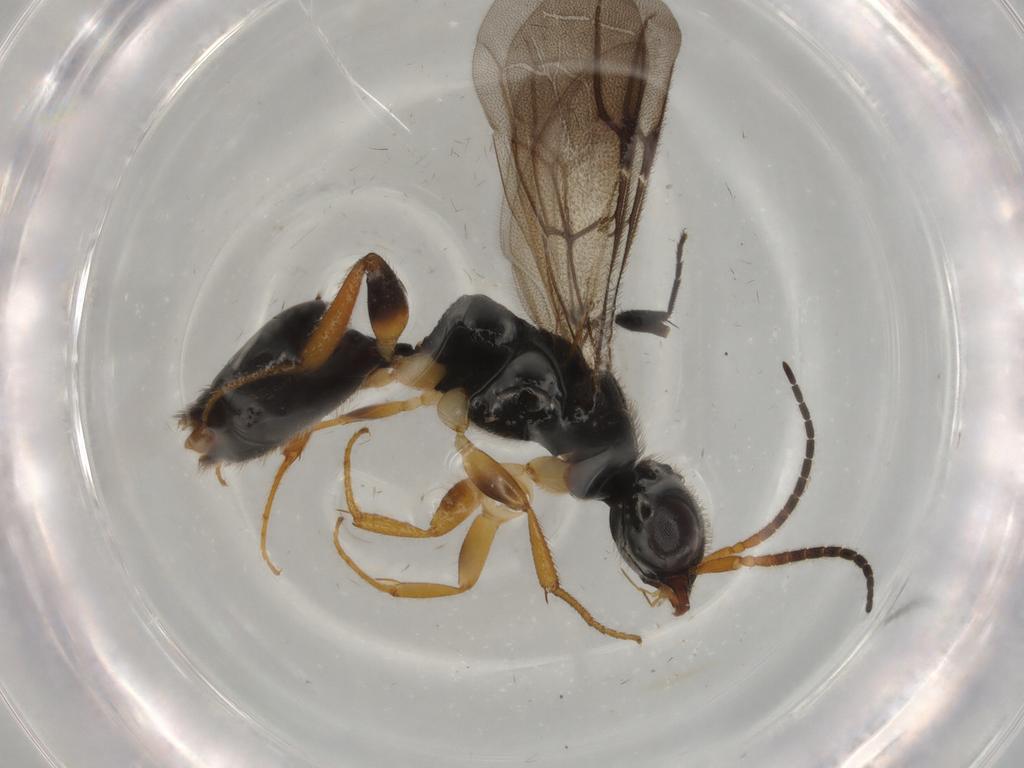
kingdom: Animalia
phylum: Arthropoda
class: Insecta
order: Hymenoptera
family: Bethylidae
